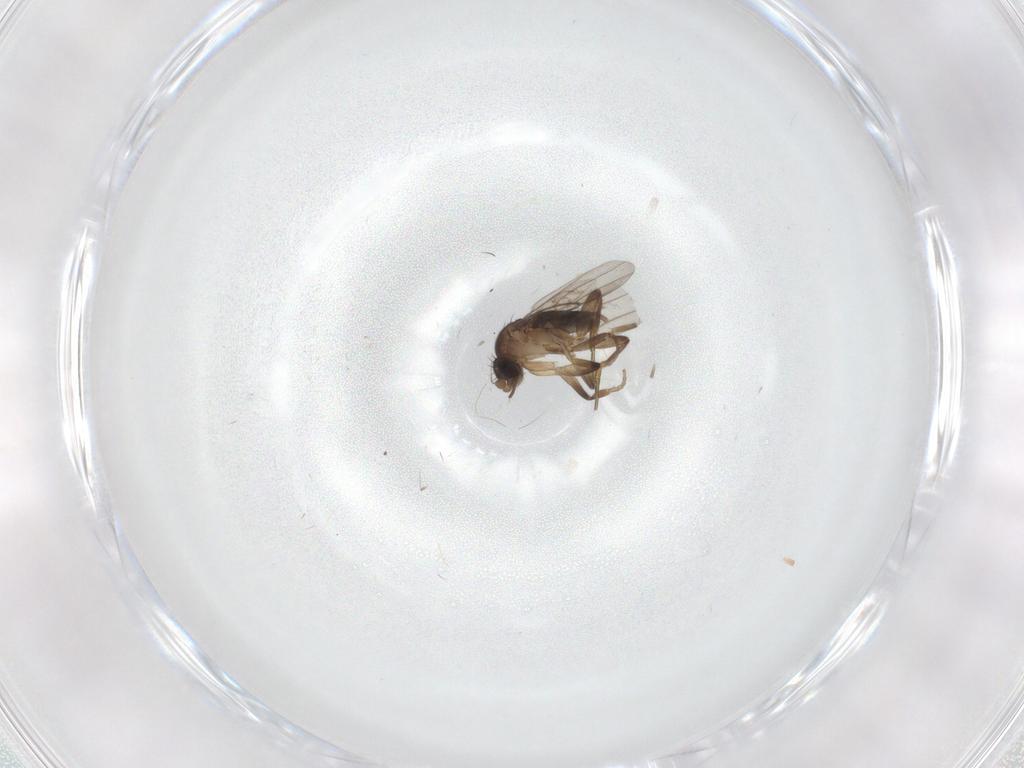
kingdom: Animalia
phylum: Arthropoda
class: Insecta
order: Diptera
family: Phoridae
